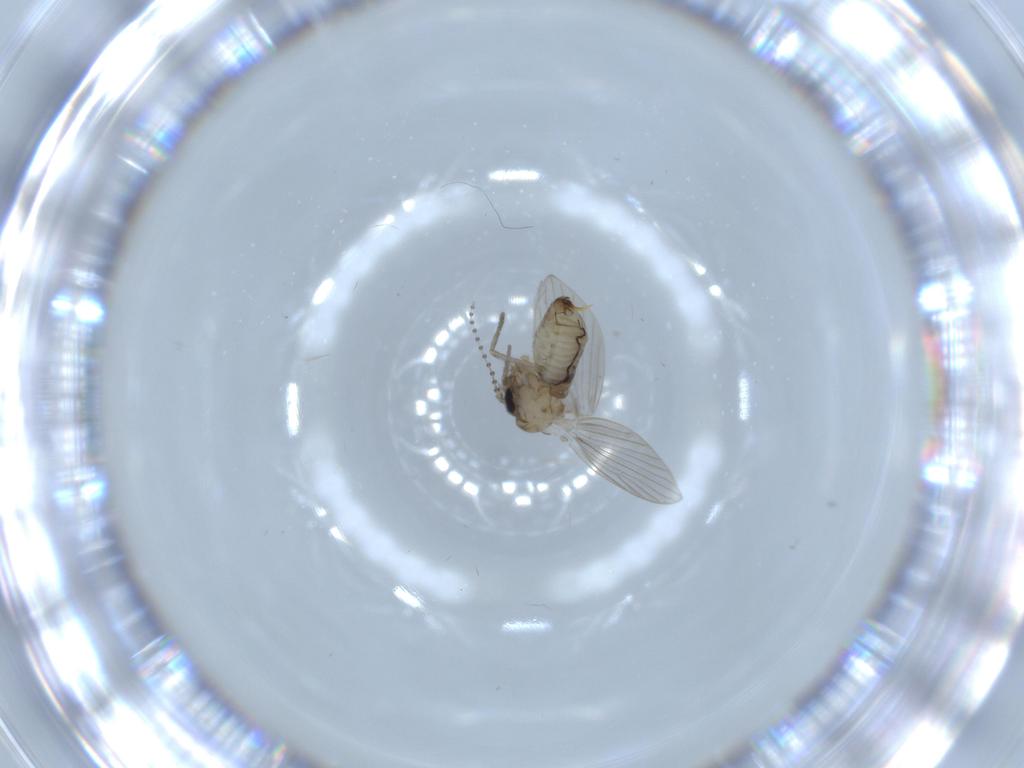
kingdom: Animalia
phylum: Arthropoda
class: Insecta
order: Diptera
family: Psychodidae
